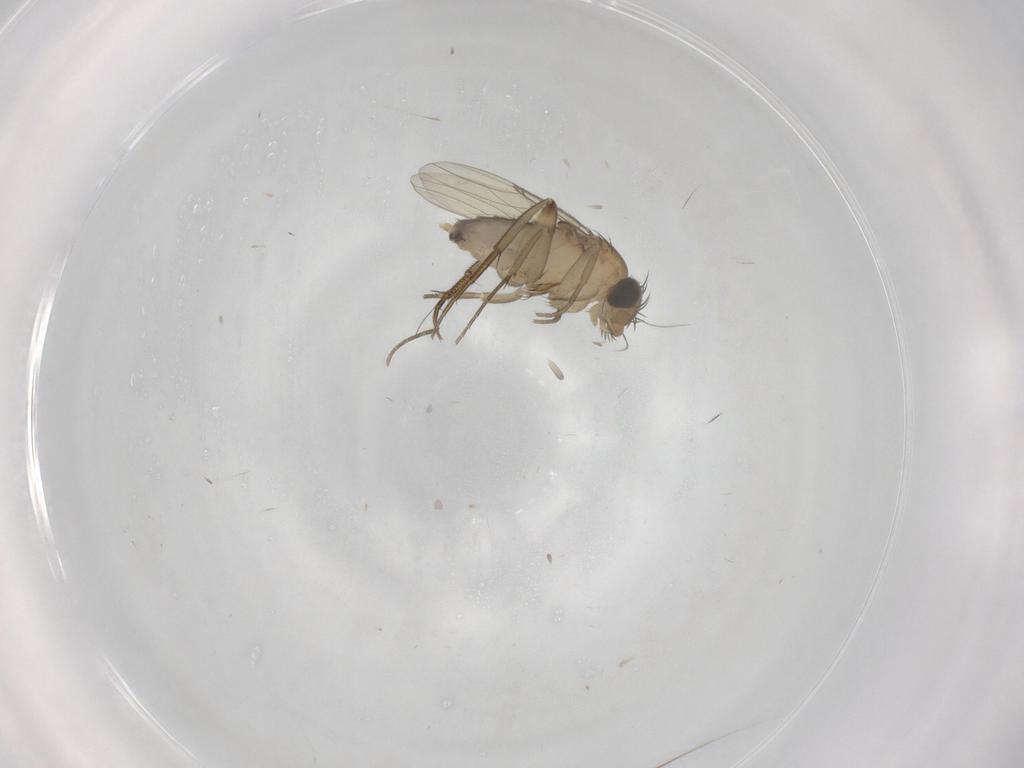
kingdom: Animalia
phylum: Arthropoda
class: Insecta
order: Diptera
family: Phoridae
